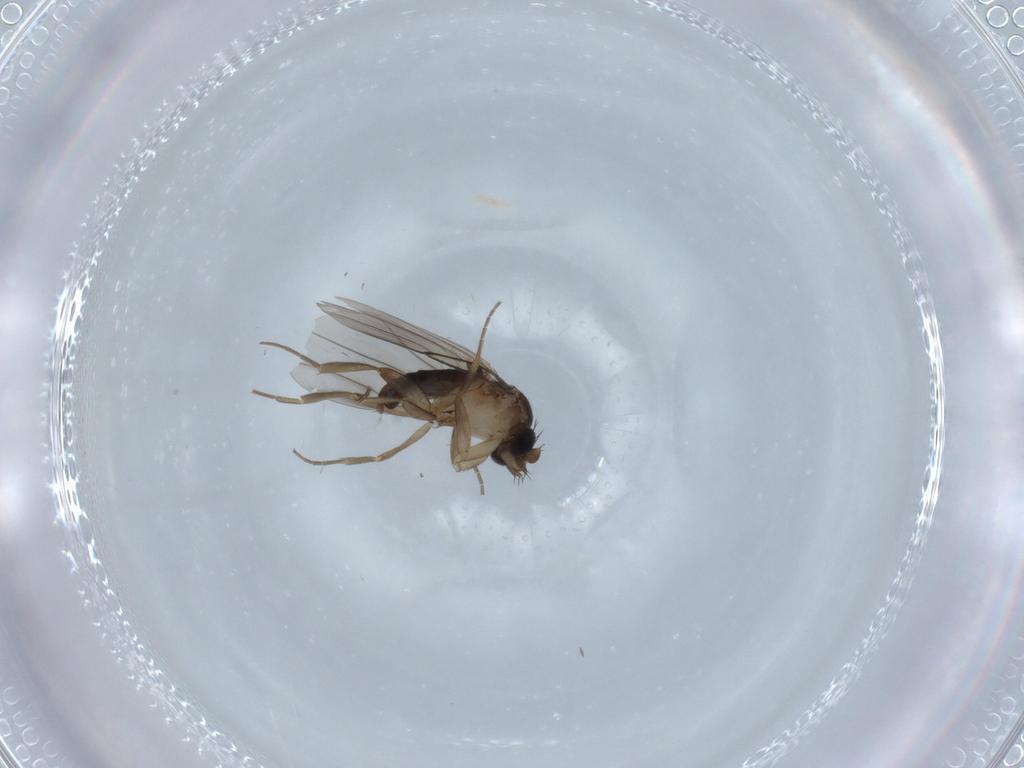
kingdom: Animalia
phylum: Arthropoda
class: Insecta
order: Diptera
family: Phoridae
